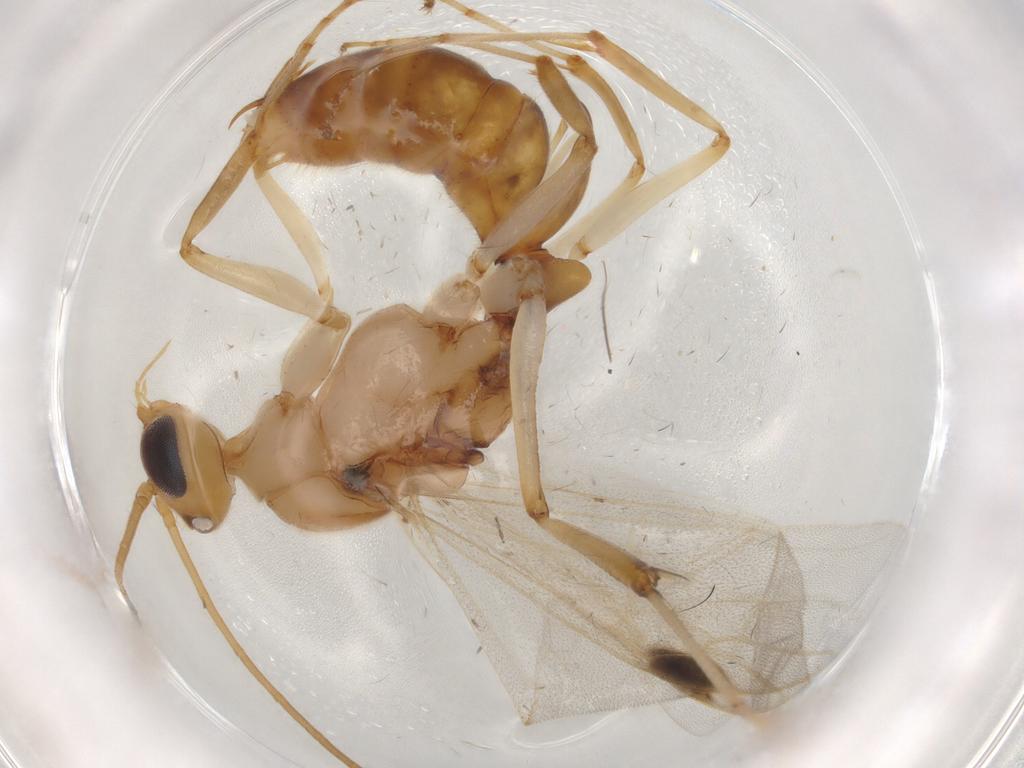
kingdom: Animalia
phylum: Arthropoda
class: Insecta
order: Hymenoptera
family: Formicidae
